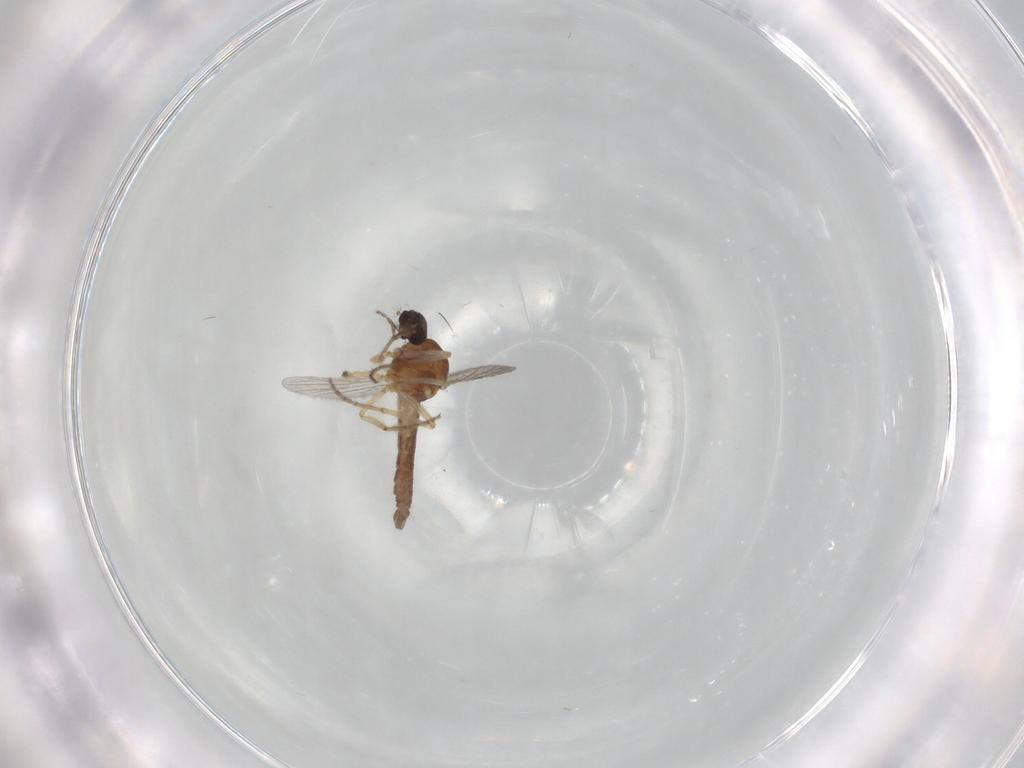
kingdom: Animalia
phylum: Arthropoda
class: Insecta
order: Diptera
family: Ceratopogonidae
